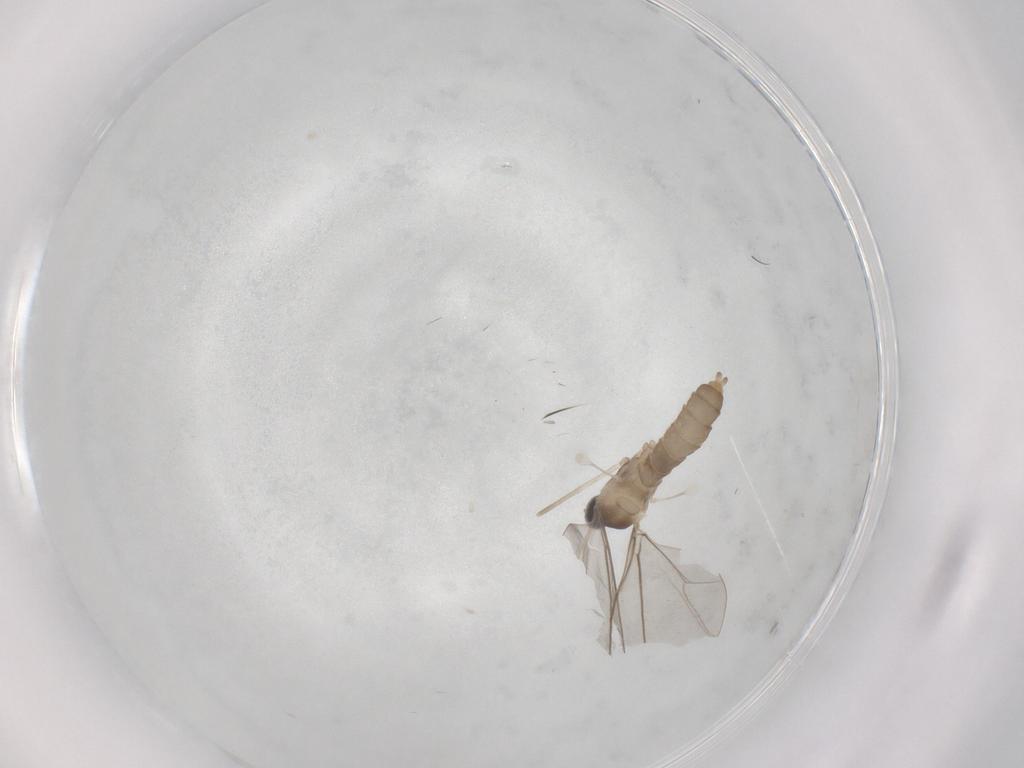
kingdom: Animalia
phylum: Arthropoda
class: Insecta
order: Diptera
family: Cecidomyiidae
